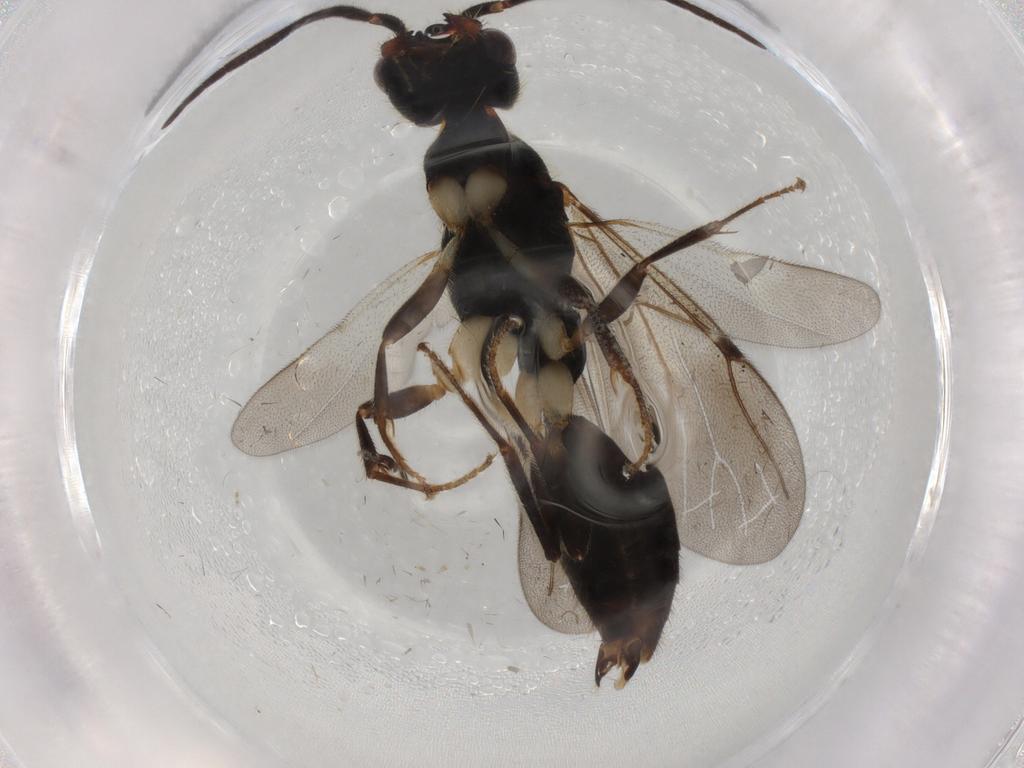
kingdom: Animalia
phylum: Arthropoda
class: Insecta
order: Hymenoptera
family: Bethylidae
